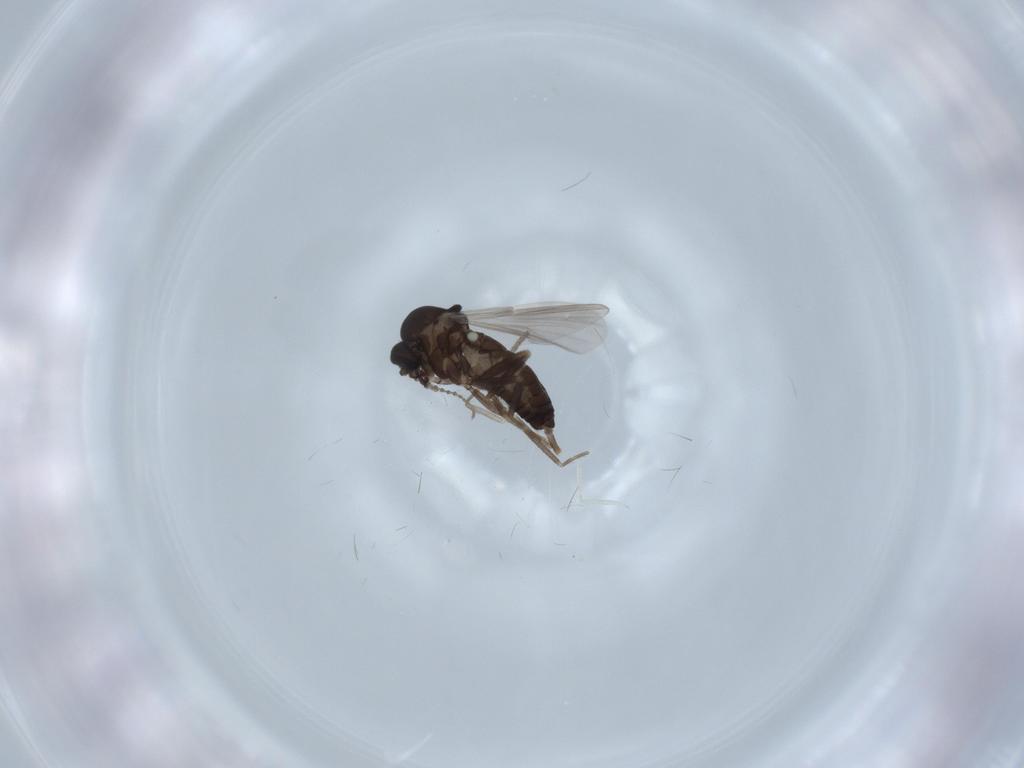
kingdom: Animalia
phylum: Arthropoda
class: Insecta
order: Diptera
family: Ceratopogonidae
